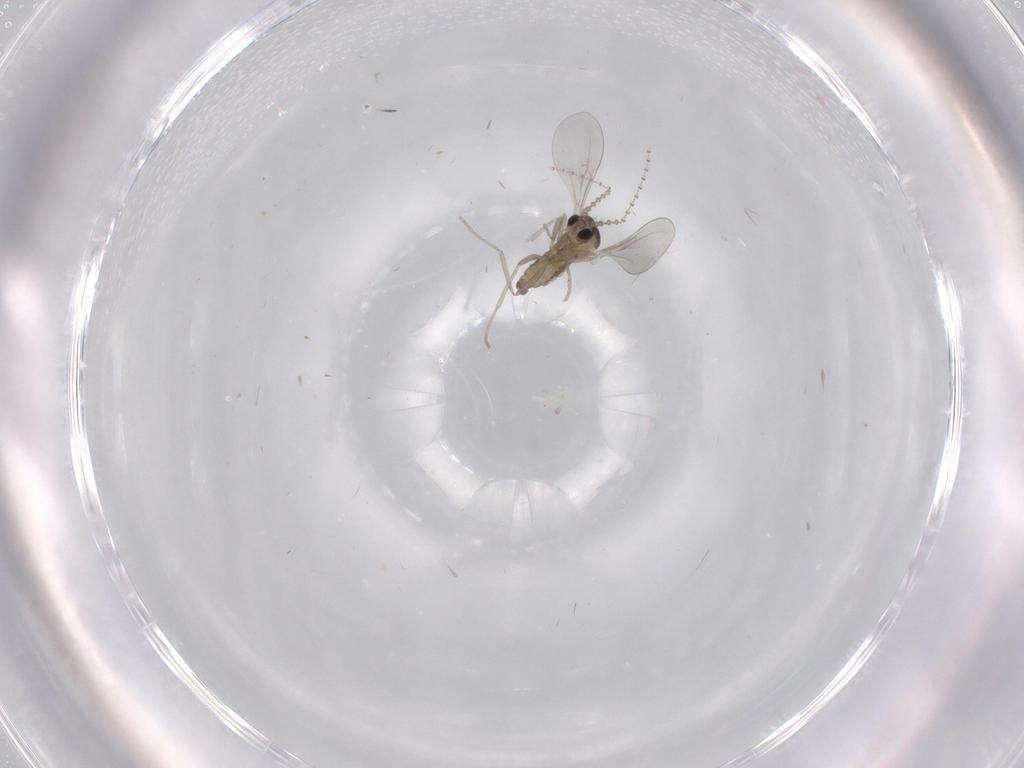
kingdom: Animalia
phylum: Arthropoda
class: Insecta
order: Diptera
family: Cecidomyiidae
